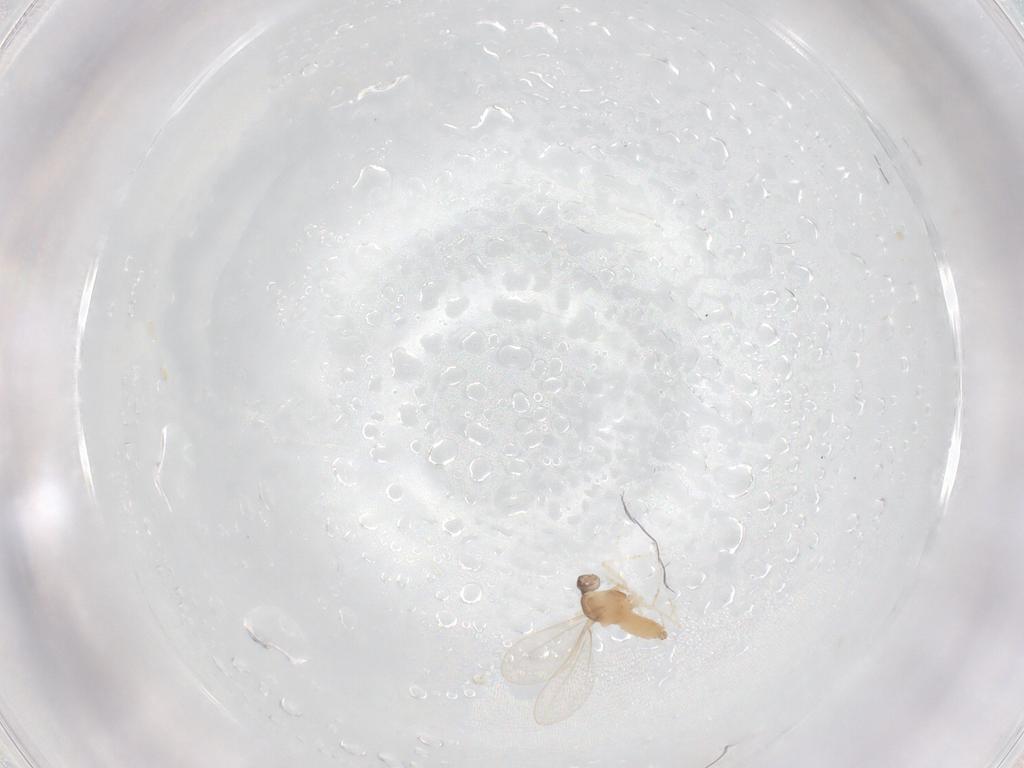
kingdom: Animalia
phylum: Arthropoda
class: Insecta
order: Diptera
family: Cecidomyiidae
